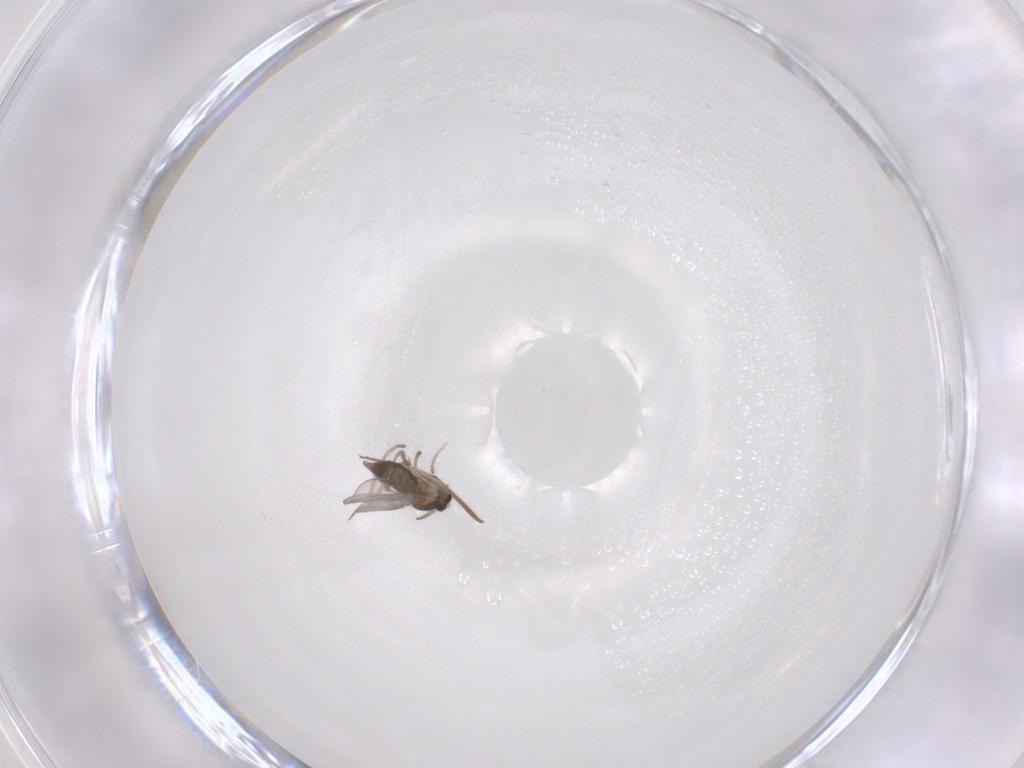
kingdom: Animalia
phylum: Arthropoda
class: Insecta
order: Diptera
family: Cecidomyiidae
